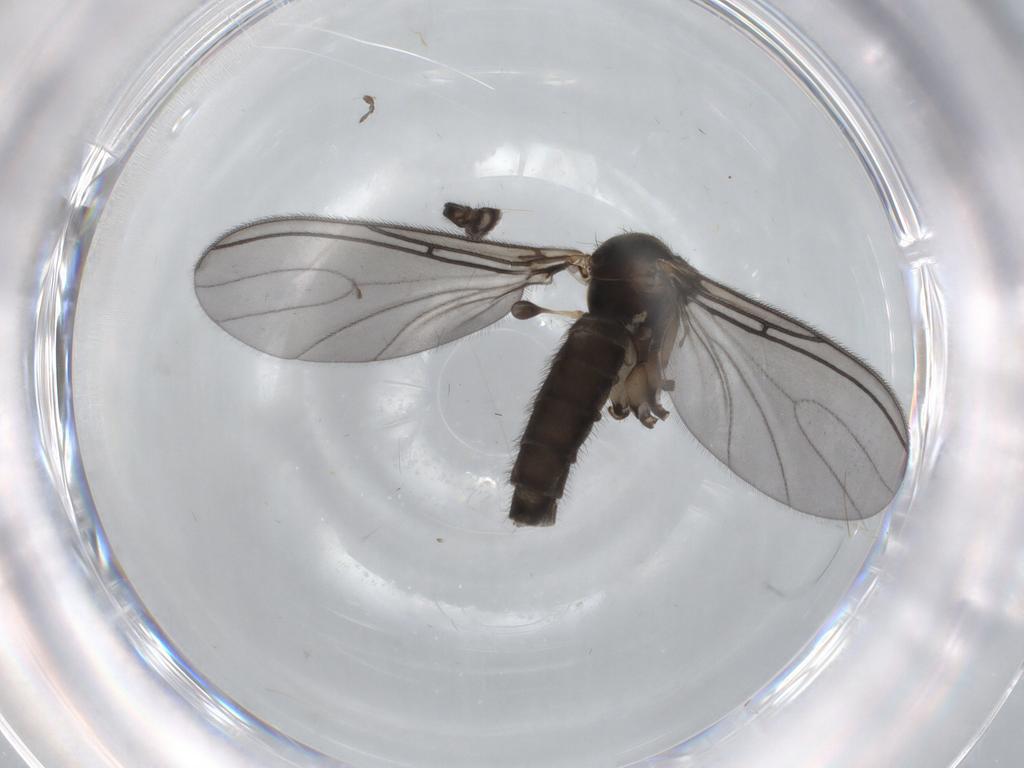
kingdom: Animalia
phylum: Arthropoda
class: Insecta
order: Diptera
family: Sciaridae
